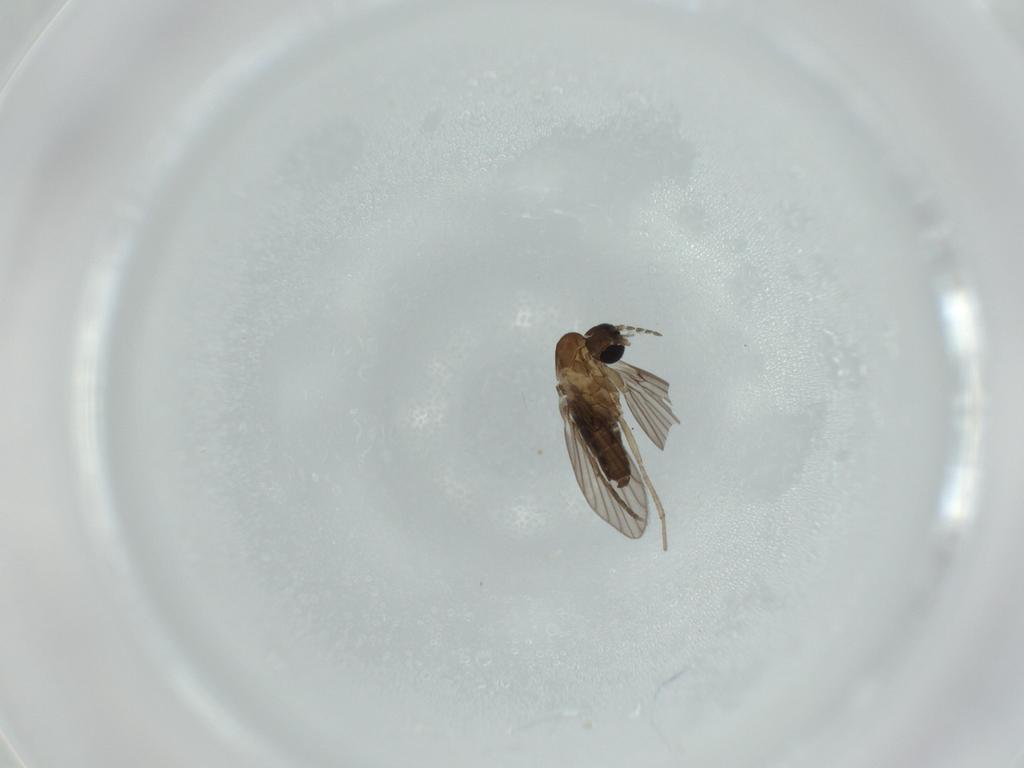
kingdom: Animalia
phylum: Arthropoda
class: Insecta
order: Diptera
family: Psychodidae
